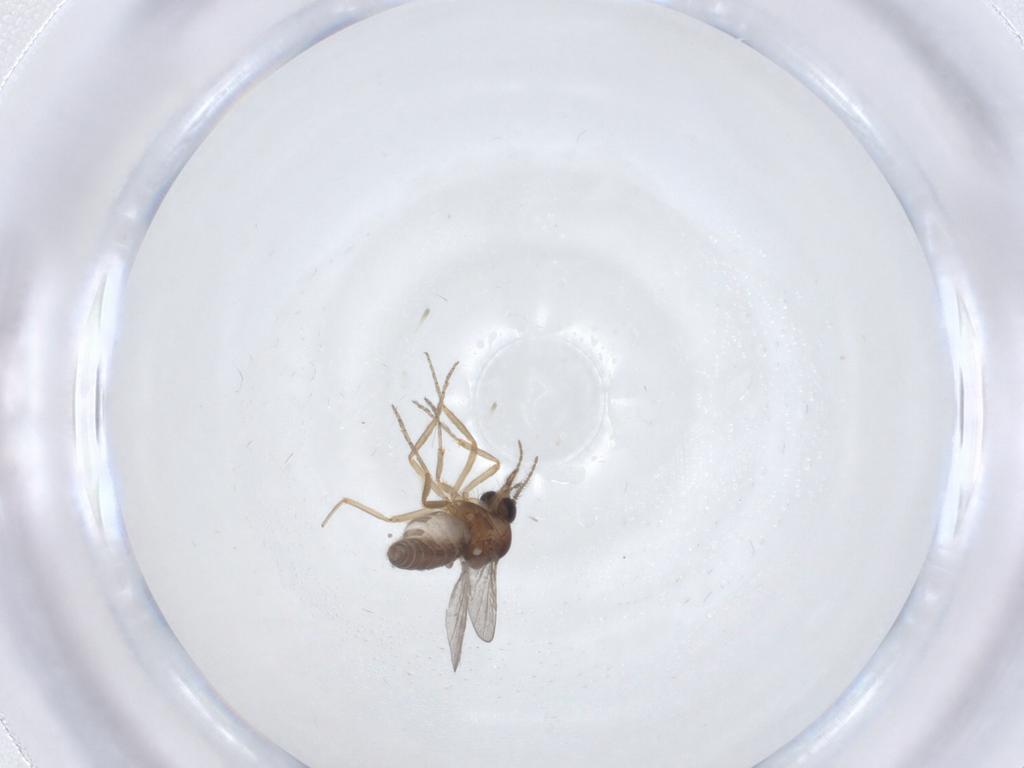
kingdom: Animalia
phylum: Arthropoda
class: Insecta
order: Diptera
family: Ceratopogonidae
